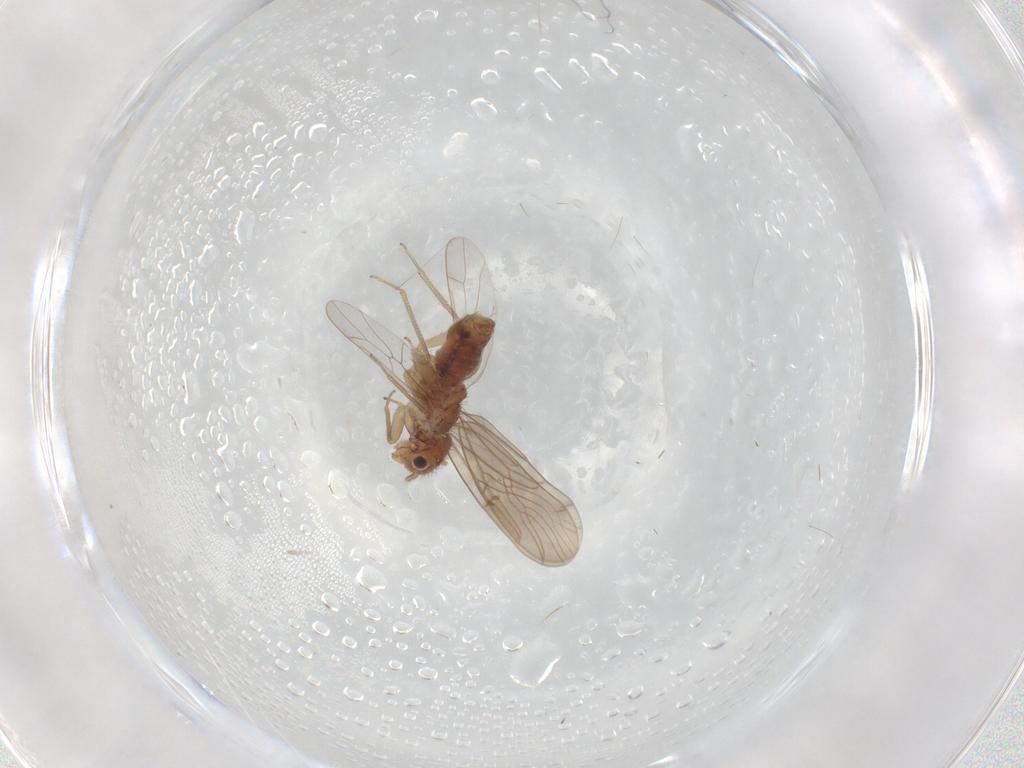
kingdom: Animalia
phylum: Arthropoda
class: Insecta
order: Psocodea
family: Ectopsocidae
